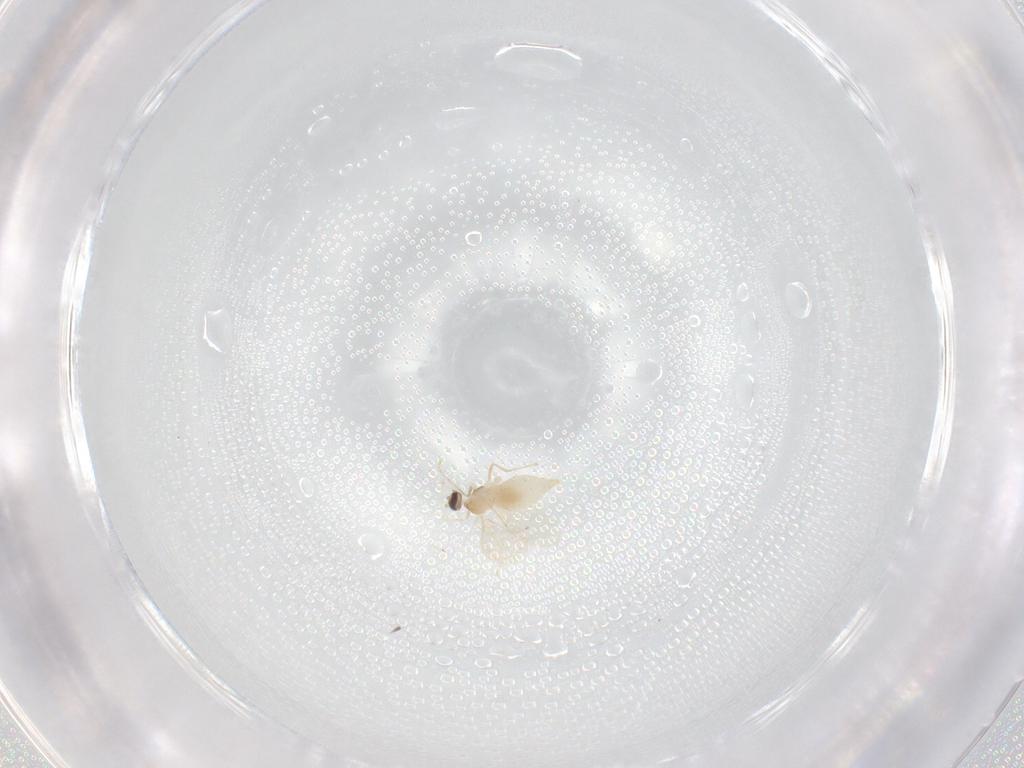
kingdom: Animalia
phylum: Arthropoda
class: Insecta
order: Diptera
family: Cecidomyiidae
